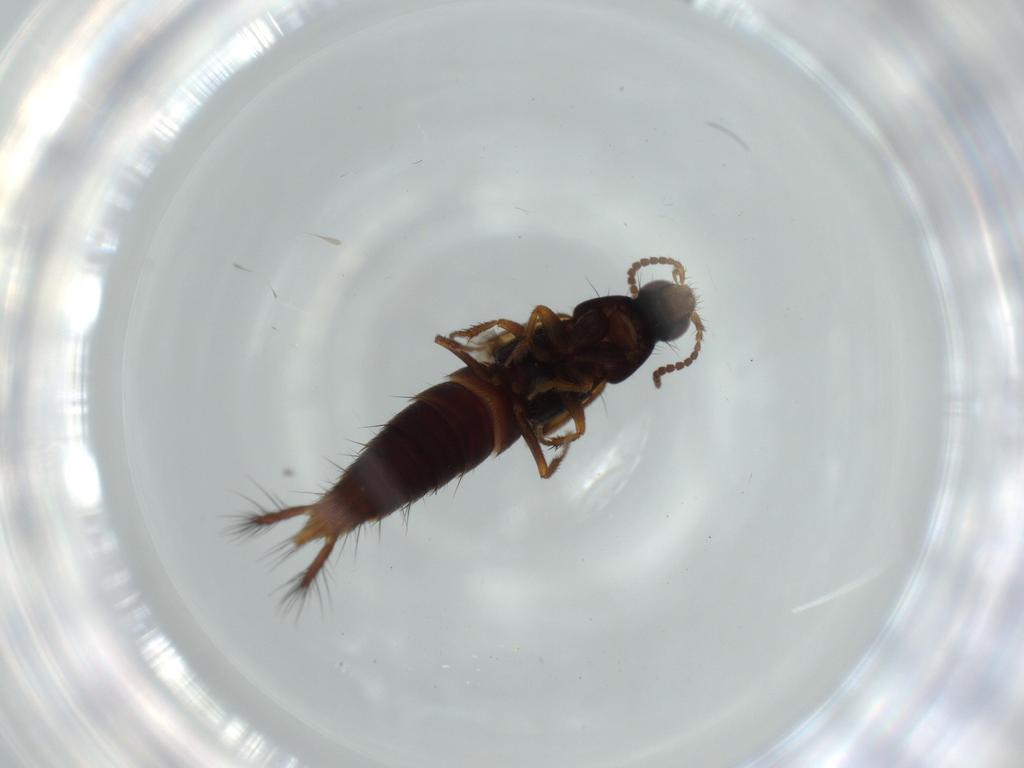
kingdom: Animalia
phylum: Arthropoda
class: Insecta
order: Coleoptera
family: Staphylinidae
